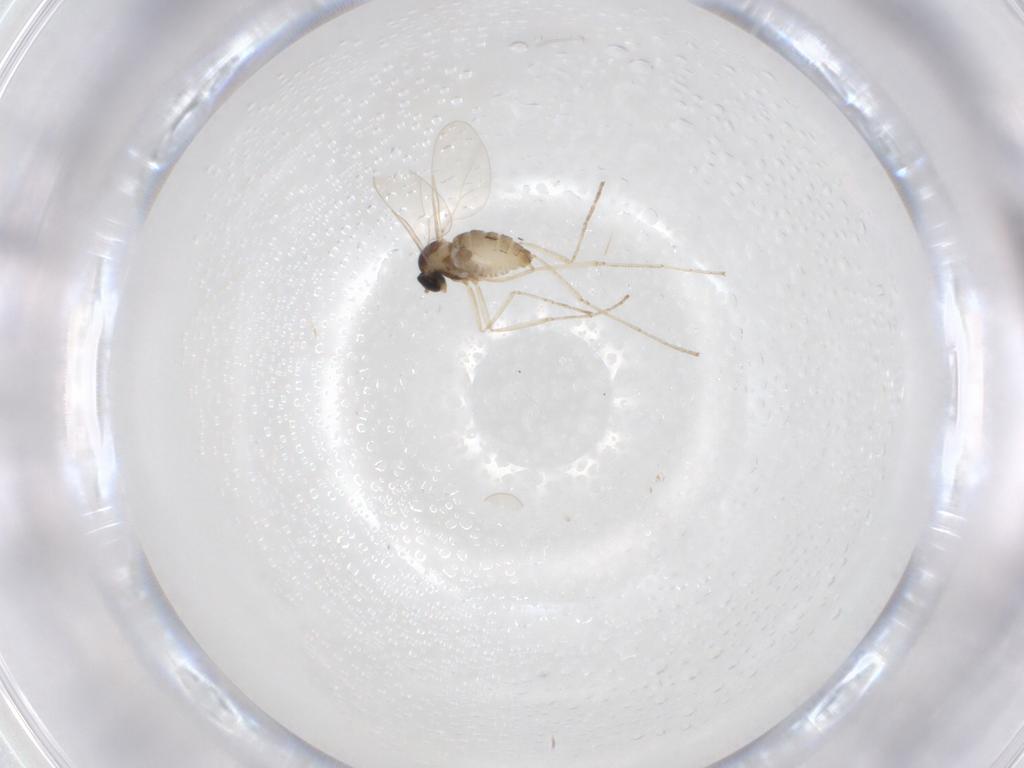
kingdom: Animalia
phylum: Arthropoda
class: Insecta
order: Diptera
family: Cecidomyiidae
